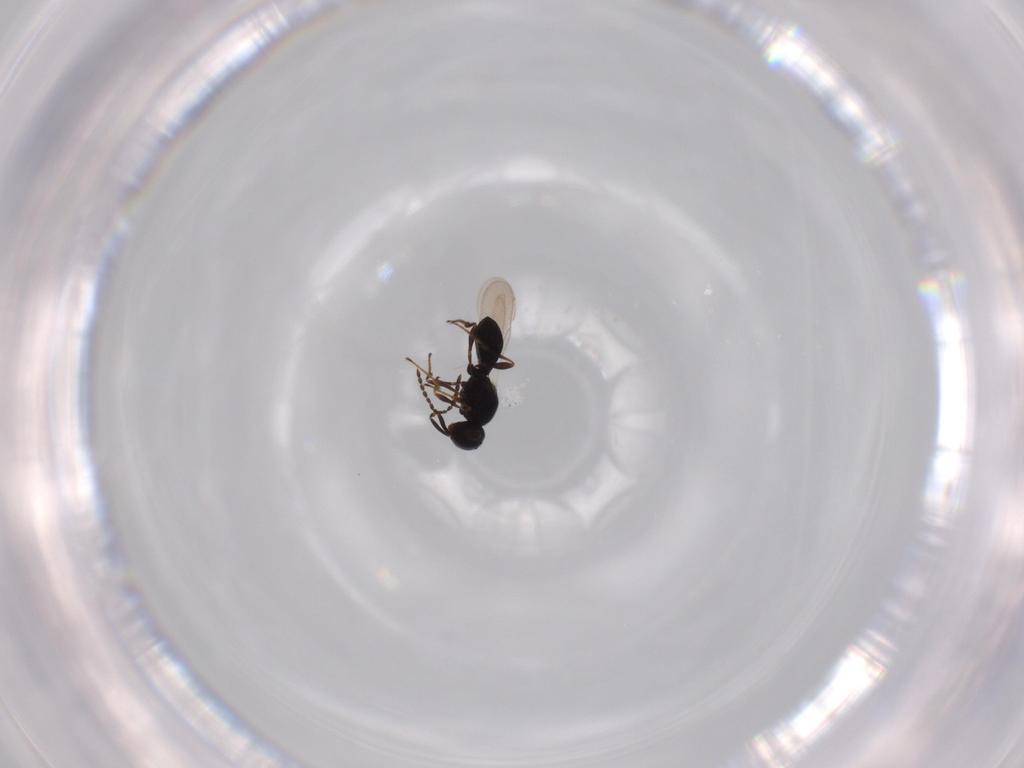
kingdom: Animalia
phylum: Arthropoda
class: Insecta
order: Hymenoptera
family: Platygastridae
